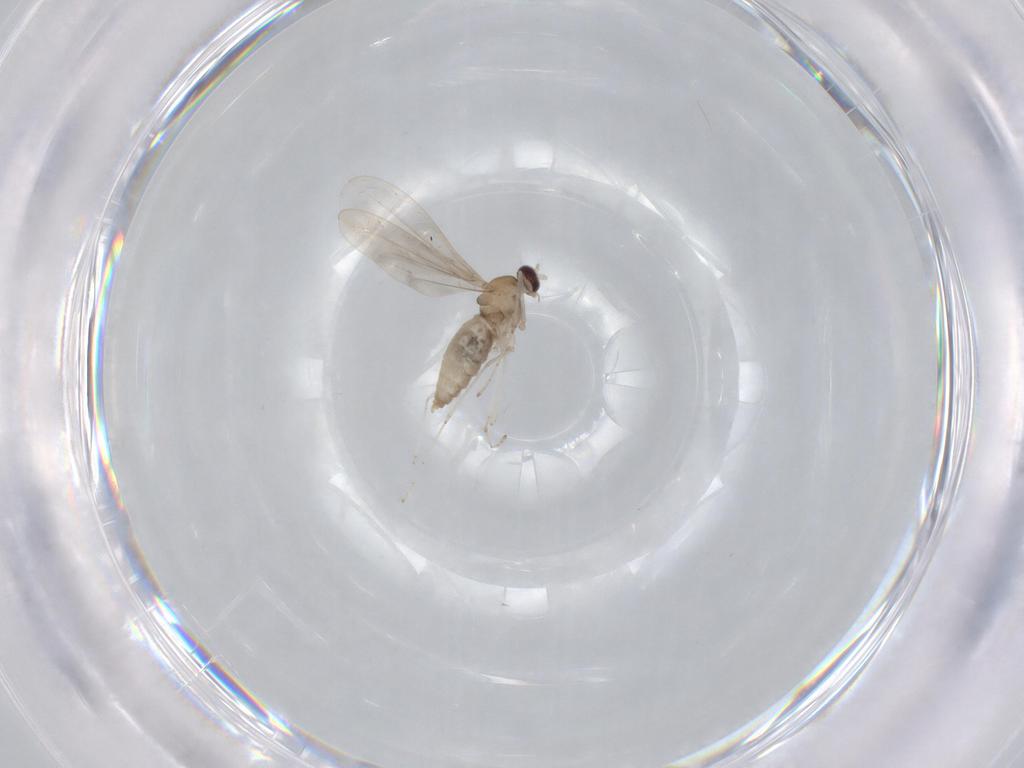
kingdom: Animalia
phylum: Arthropoda
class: Insecta
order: Diptera
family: Cecidomyiidae
